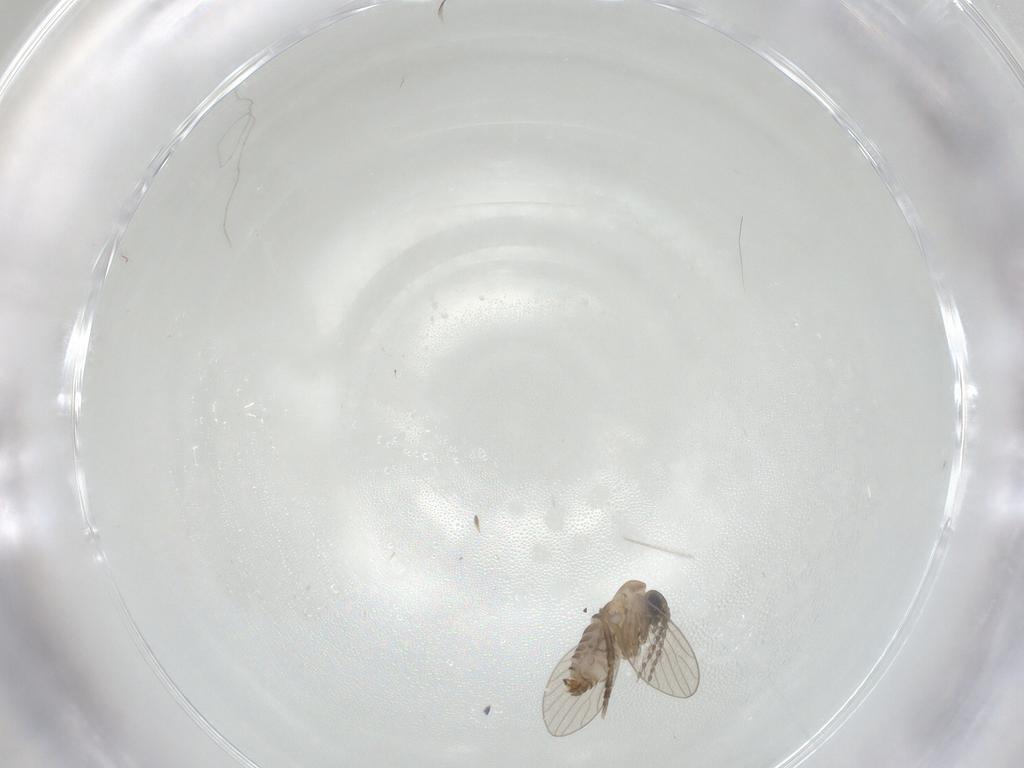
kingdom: Animalia
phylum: Arthropoda
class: Insecta
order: Diptera
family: Psychodidae
